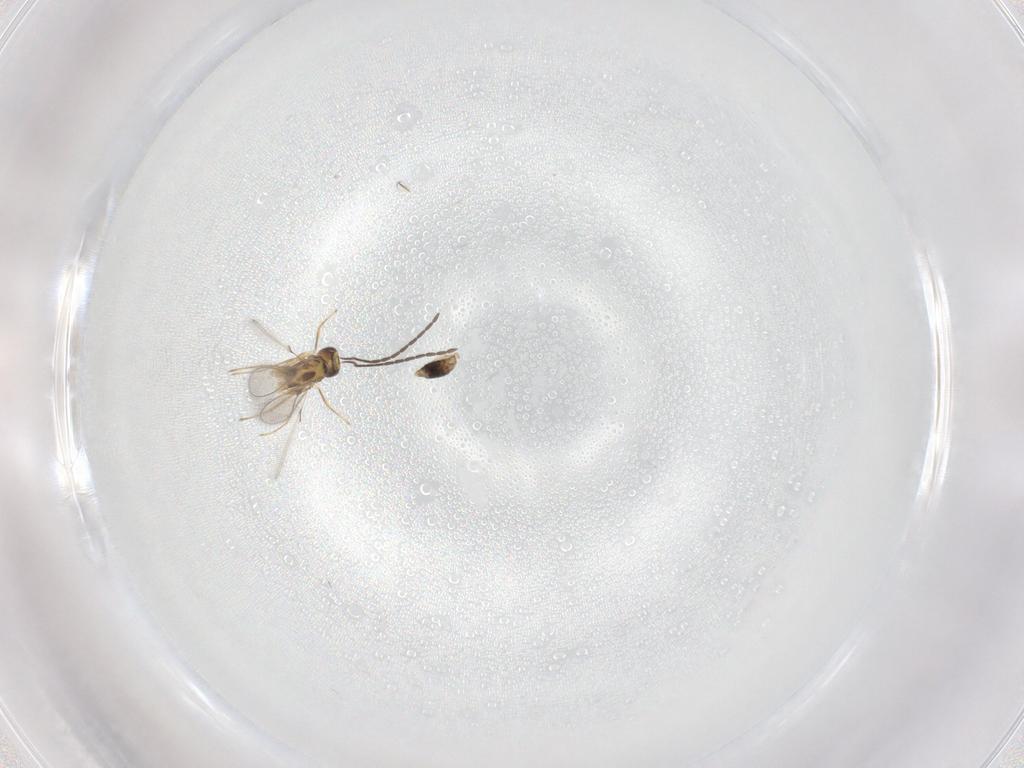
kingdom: Animalia
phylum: Arthropoda
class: Insecta
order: Hymenoptera
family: Mymaridae
